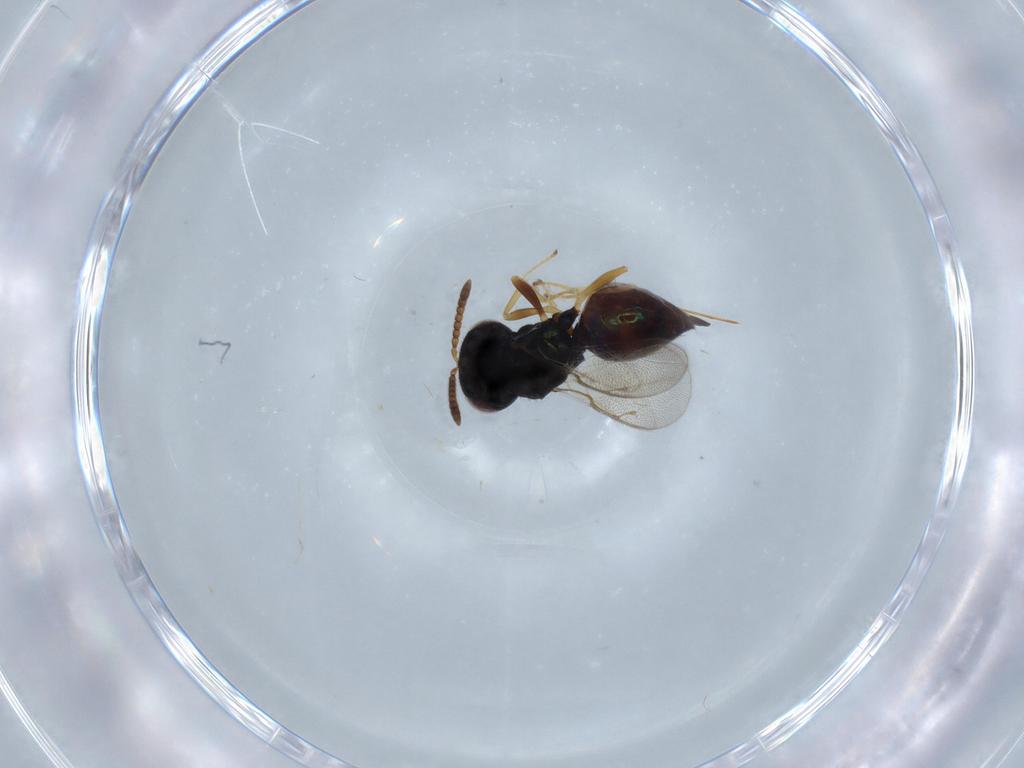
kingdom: Animalia
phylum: Arthropoda
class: Insecta
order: Hymenoptera
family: Pteromalidae
